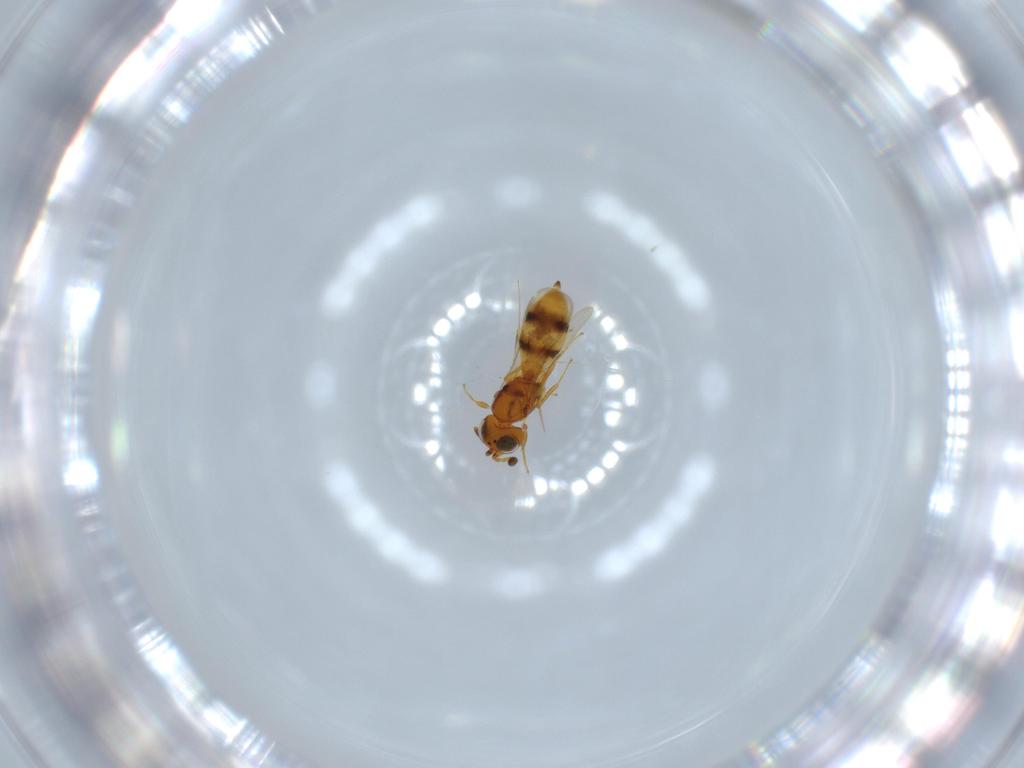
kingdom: Animalia
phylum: Arthropoda
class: Insecta
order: Hymenoptera
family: Scelionidae
